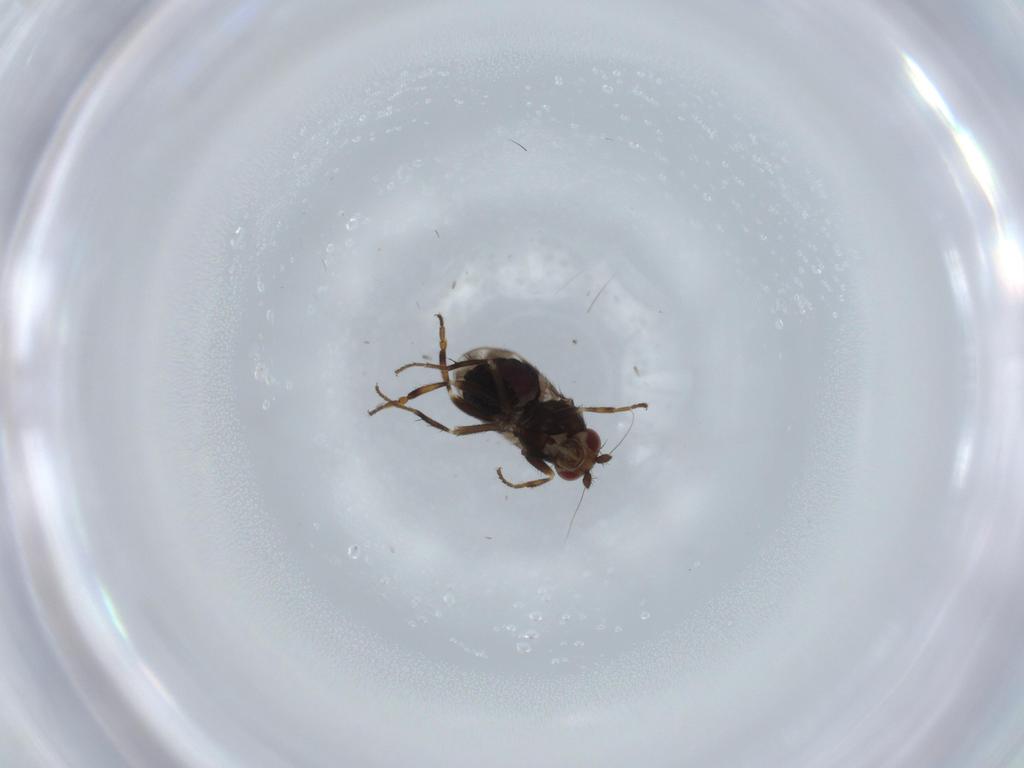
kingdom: Animalia
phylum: Arthropoda
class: Insecta
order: Diptera
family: Sphaeroceridae
